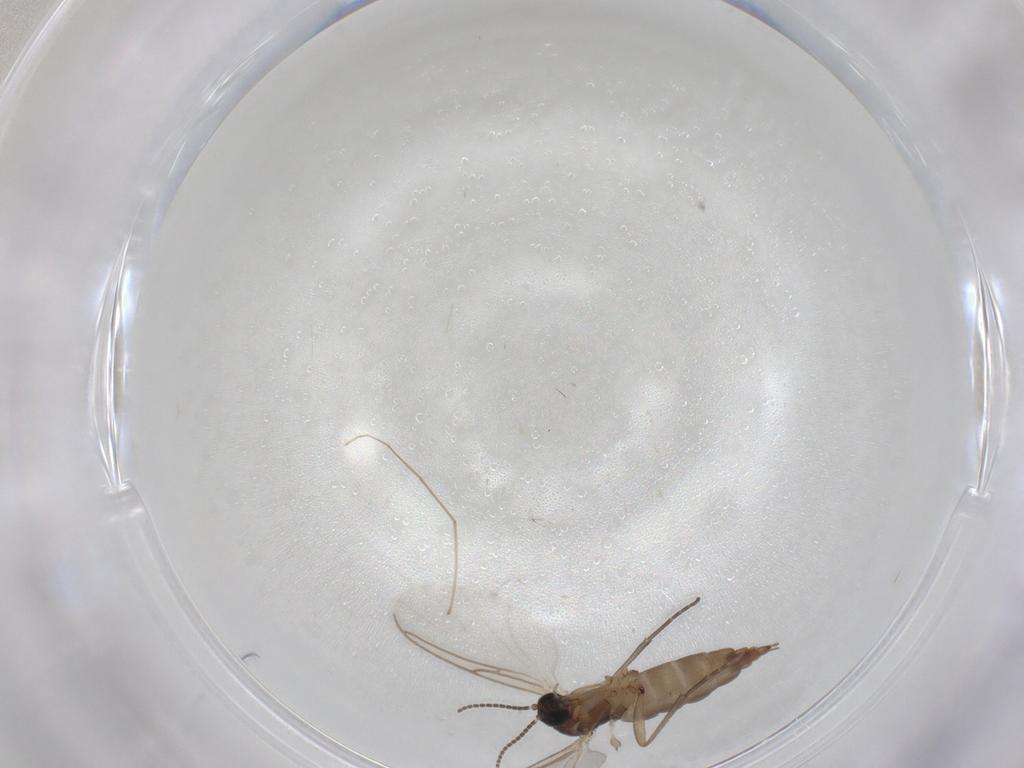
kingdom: Animalia
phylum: Arthropoda
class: Insecta
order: Diptera
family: Sciaridae
